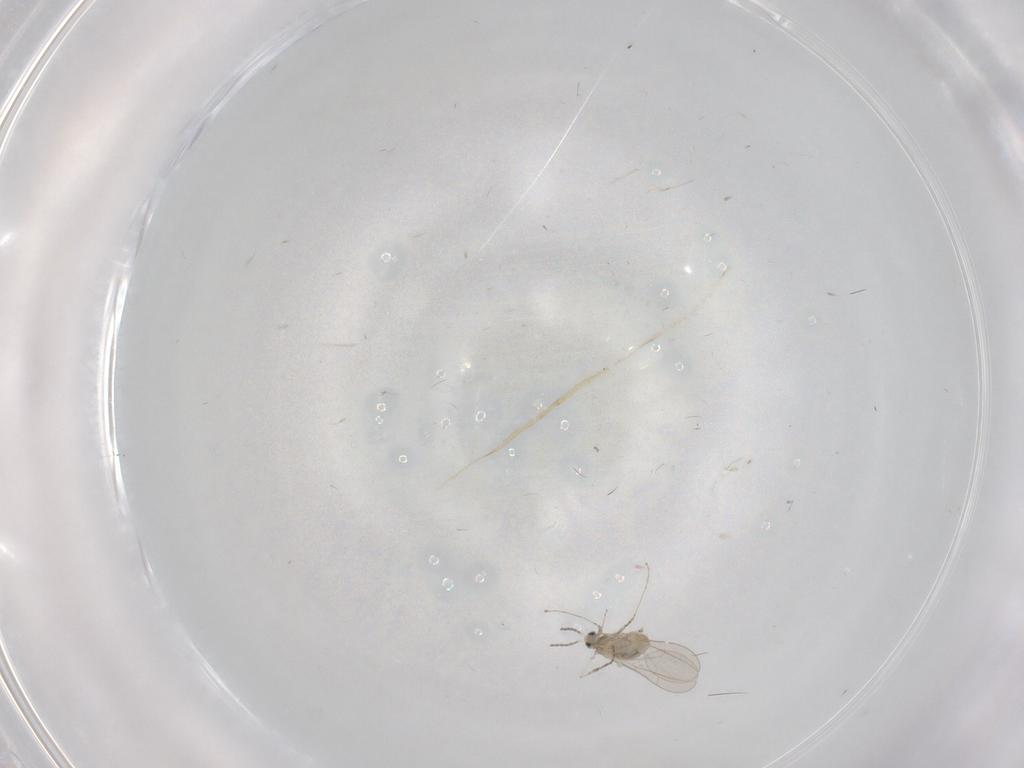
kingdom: Animalia
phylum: Arthropoda
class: Insecta
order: Diptera
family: Cecidomyiidae
